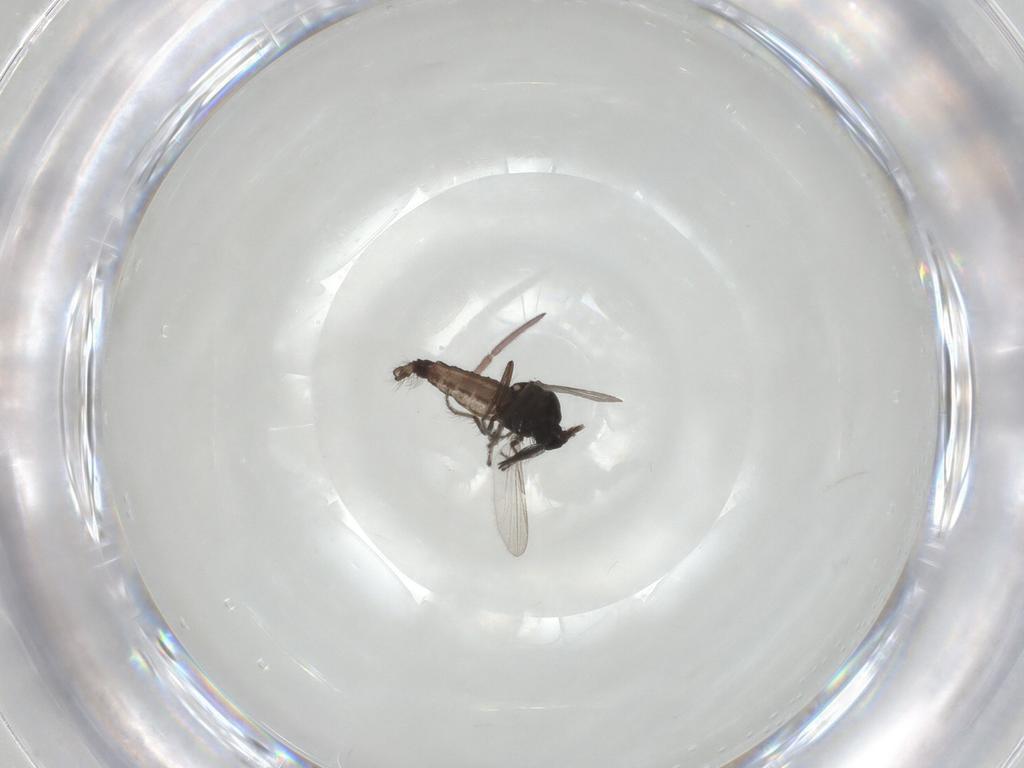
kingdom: Animalia
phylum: Arthropoda
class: Insecta
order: Diptera
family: Ceratopogonidae
